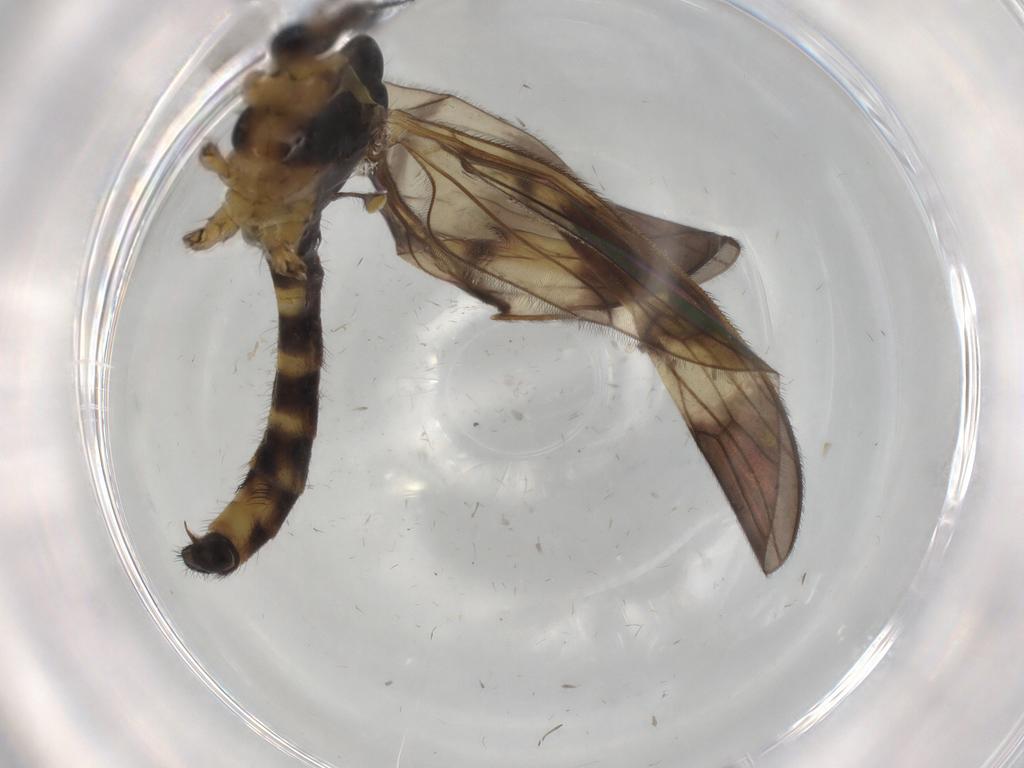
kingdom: Animalia
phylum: Arthropoda
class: Insecta
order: Diptera
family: Limoniidae
